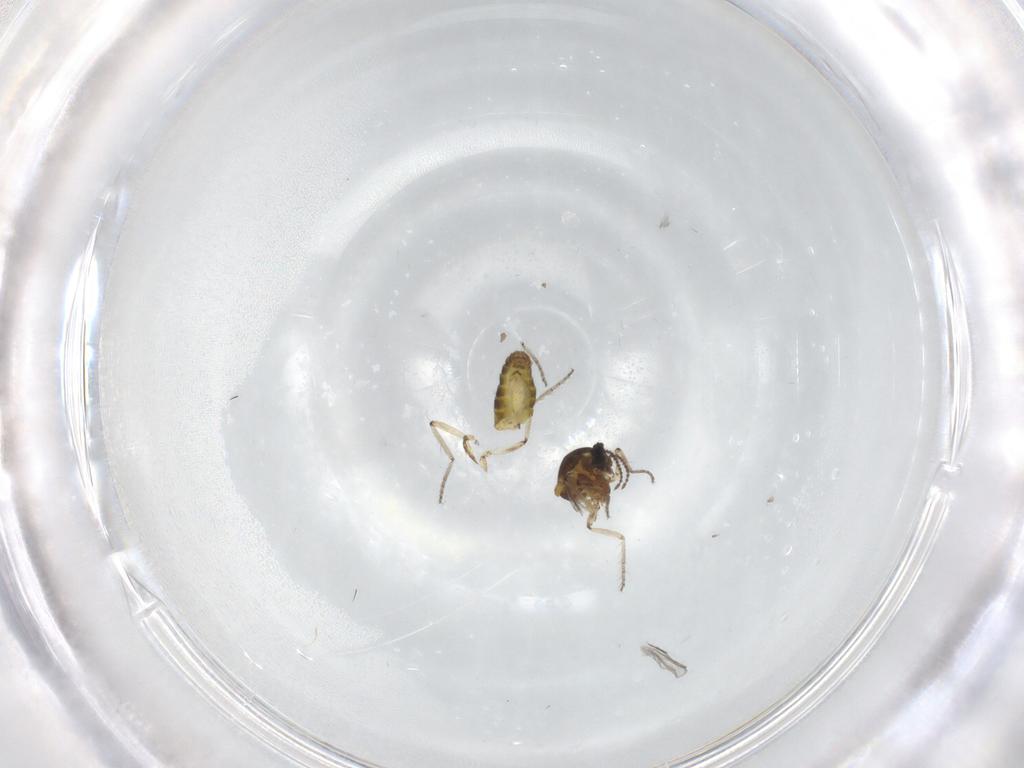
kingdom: Animalia
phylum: Arthropoda
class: Insecta
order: Diptera
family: Ceratopogonidae
